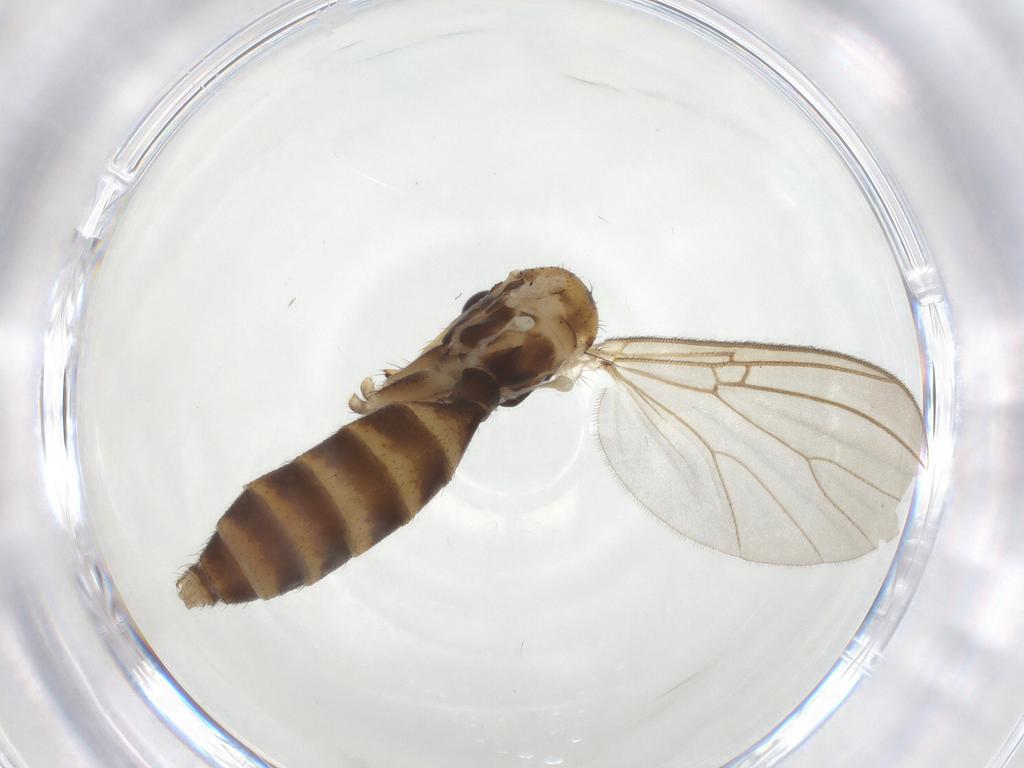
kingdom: Animalia
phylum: Arthropoda
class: Insecta
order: Diptera
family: Mycetophilidae
